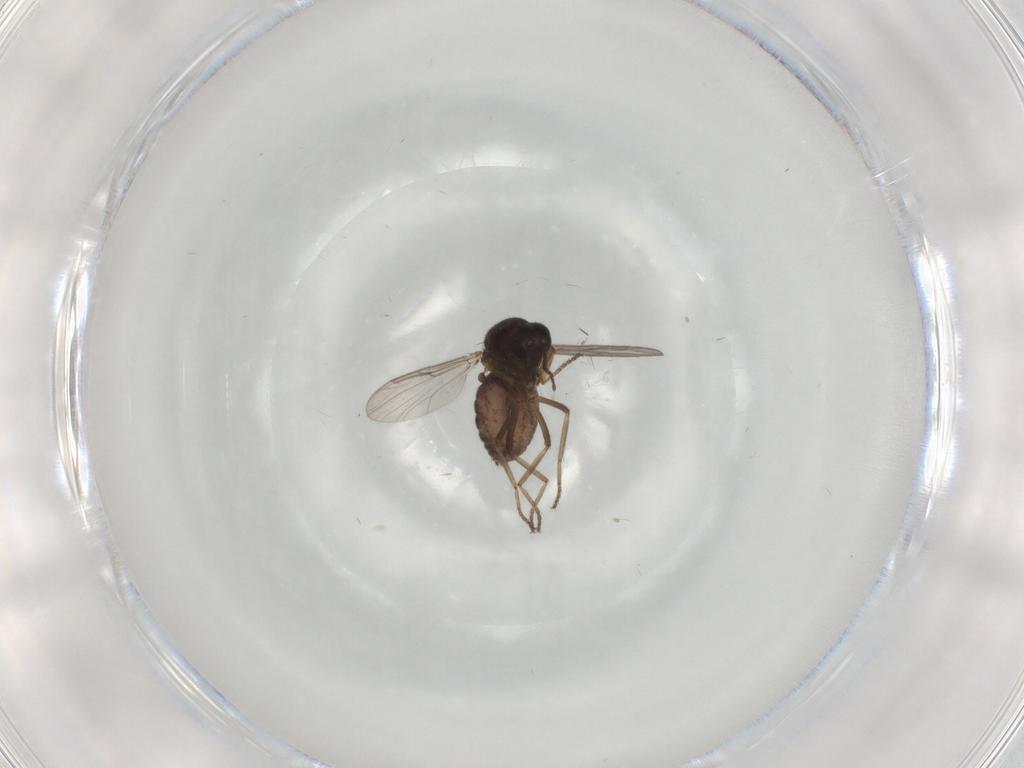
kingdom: Animalia
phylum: Arthropoda
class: Insecta
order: Diptera
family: Ceratopogonidae
